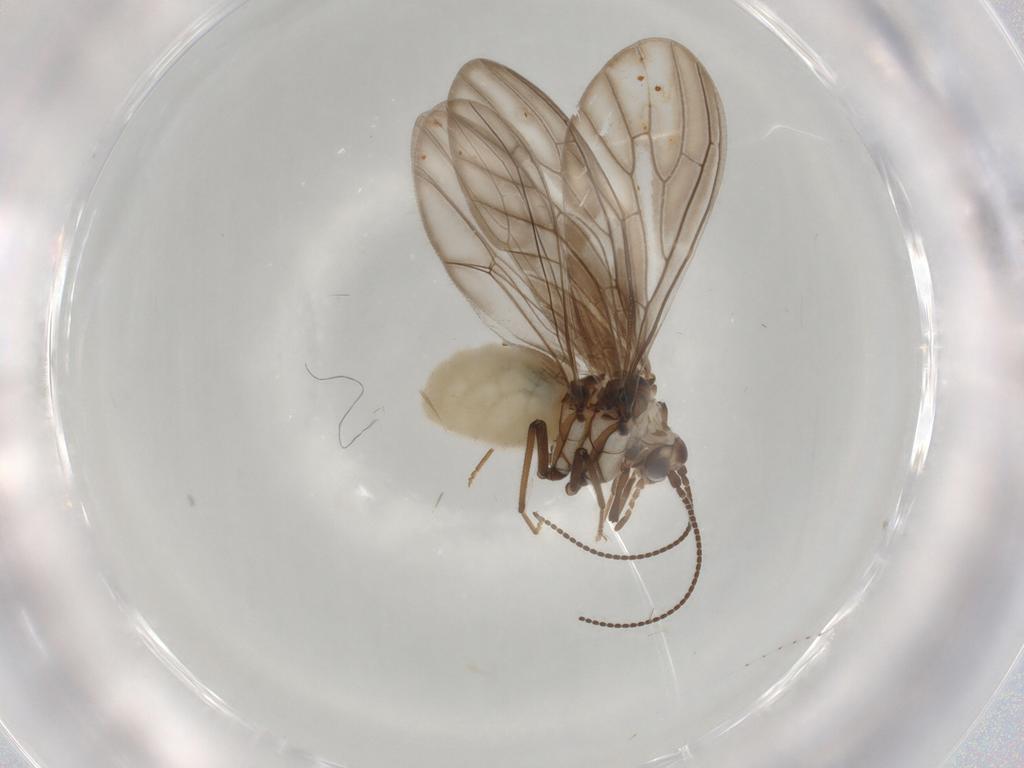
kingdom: Animalia
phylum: Arthropoda
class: Insecta
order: Neuroptera
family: Coniopterygidae
